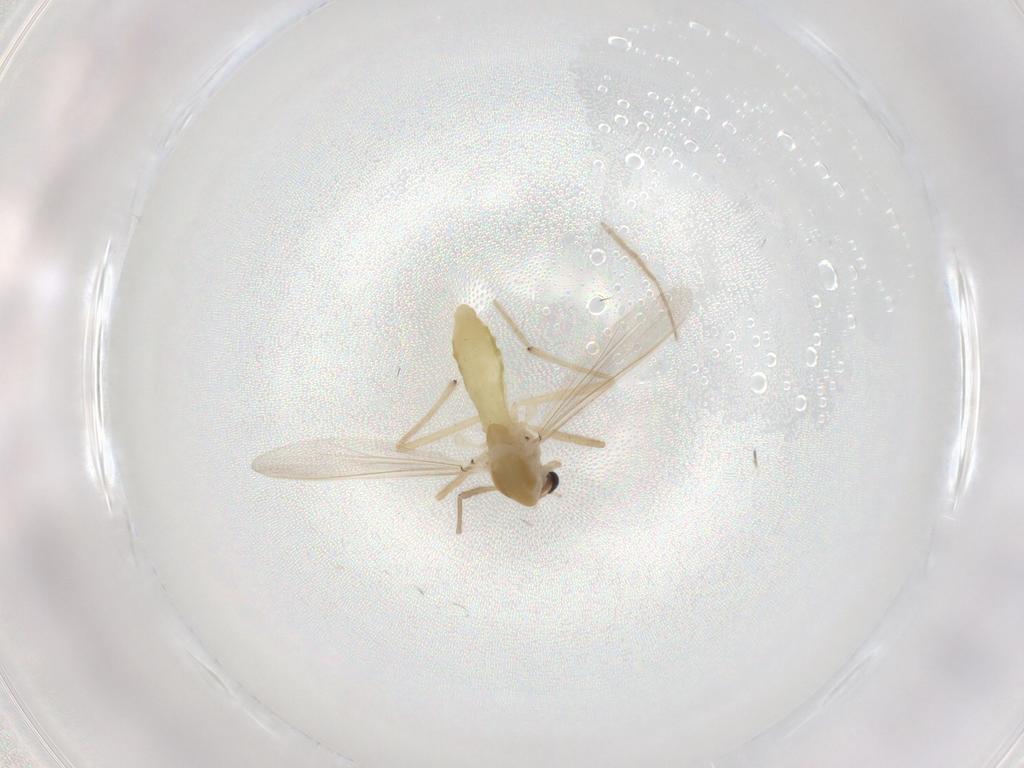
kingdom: Animalia
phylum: Arthropoda
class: Insecta
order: Diptera
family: Chironomidae
